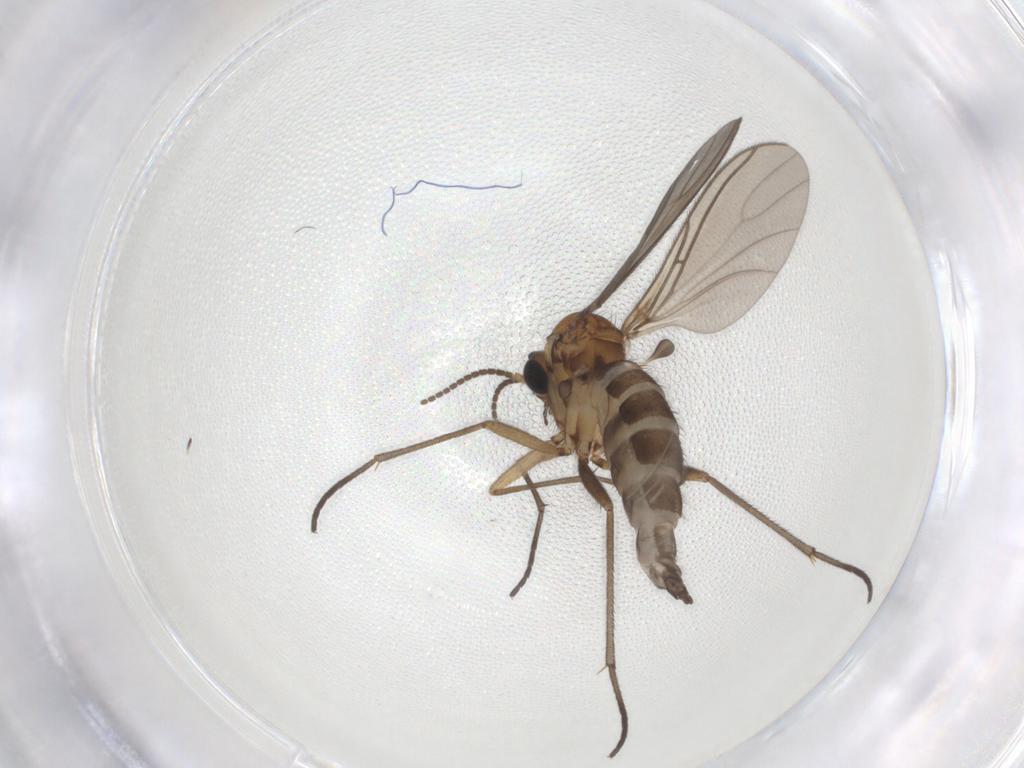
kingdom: Animalia
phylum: Arthropoda
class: Insecta
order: Diptera
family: Sciaridae
